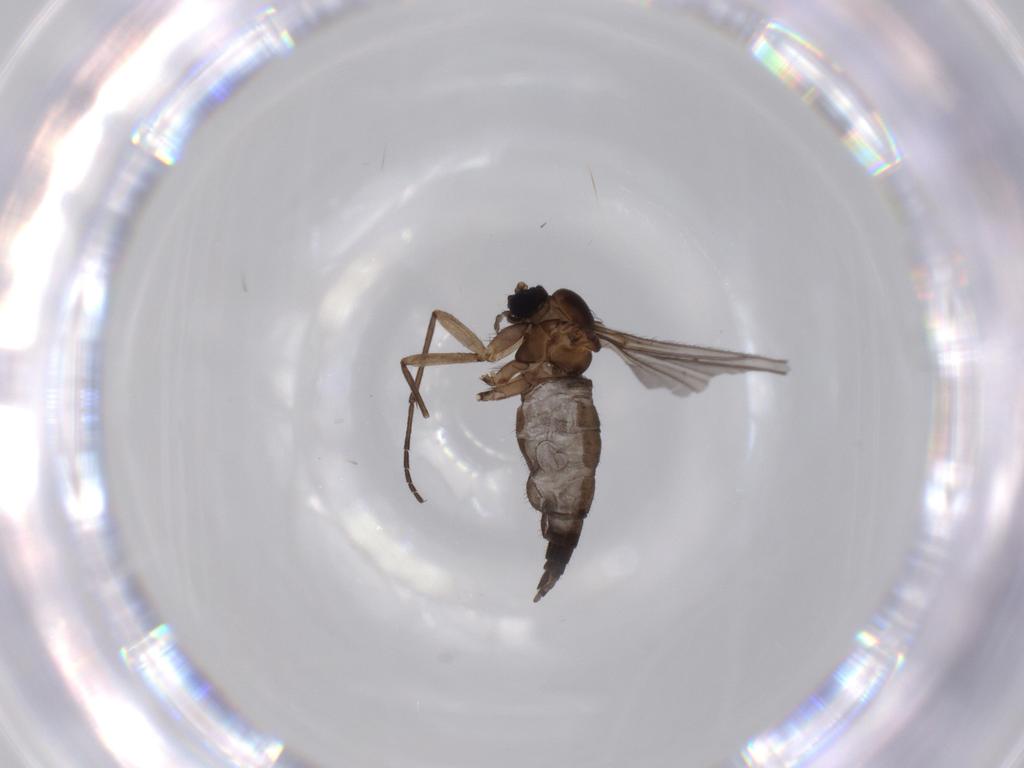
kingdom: Animalia
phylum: Arthropoda
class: Insecta
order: Diptera
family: Sciaridae
